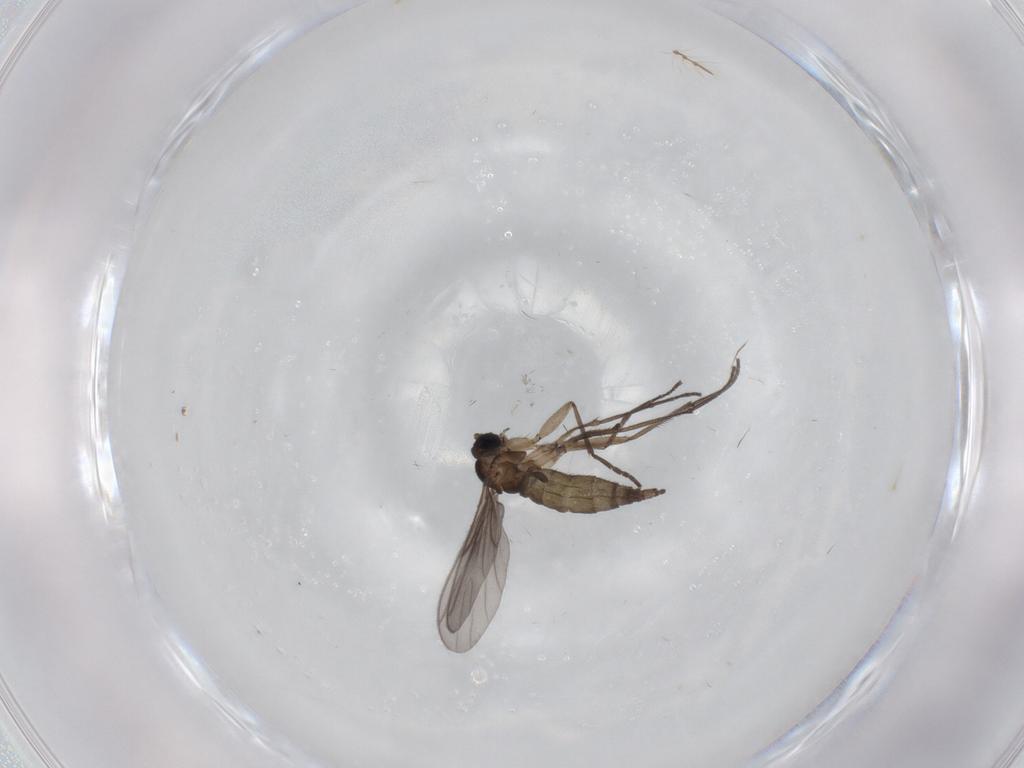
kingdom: Animalia
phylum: Arthropoda
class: Insecta
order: Diptera
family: Sciaridae
